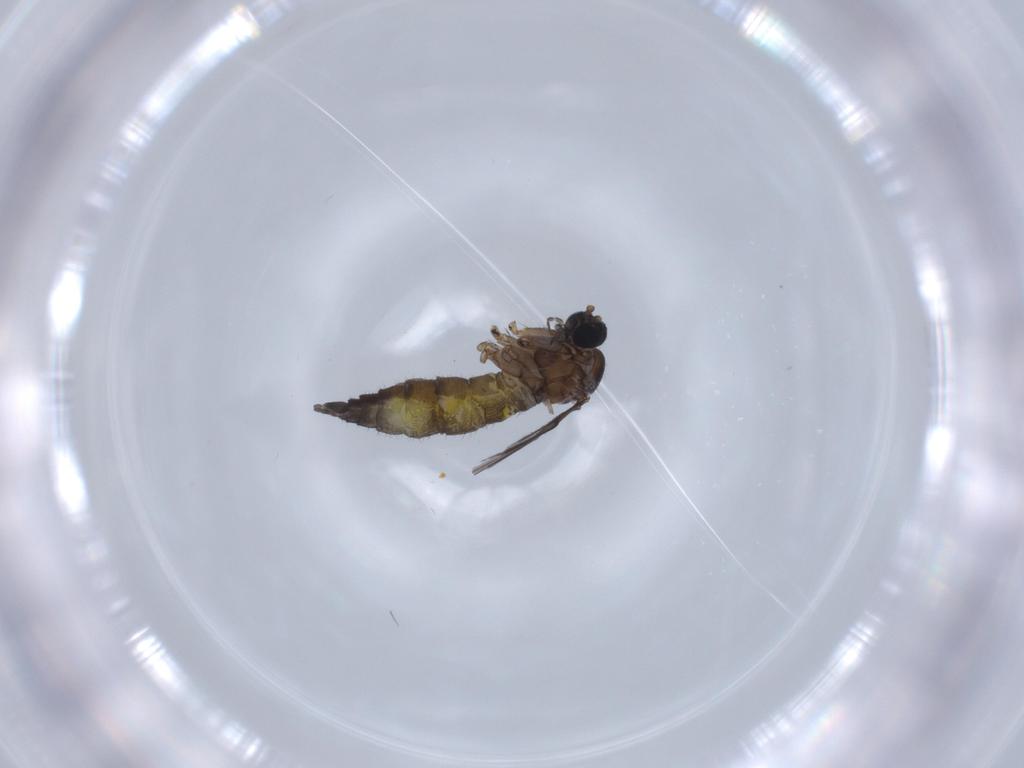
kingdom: Animalia
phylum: Arthropoda
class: Insecta
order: Diptera
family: Sciaridae
